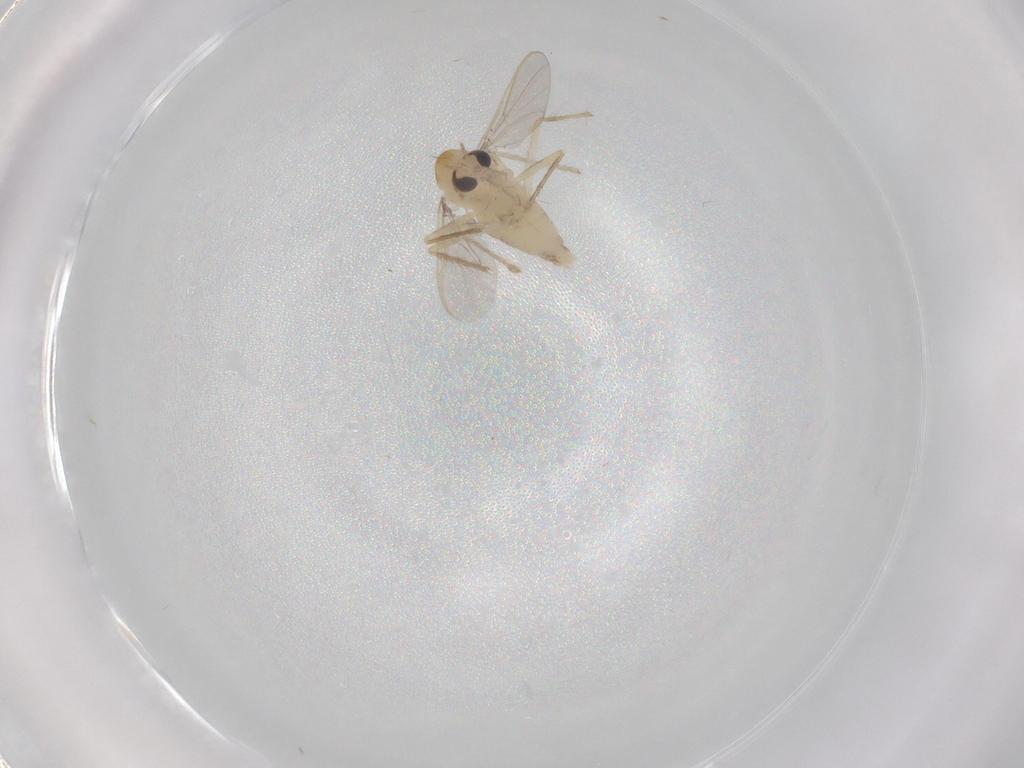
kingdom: Animalia
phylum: Arthropoda
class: Insecta
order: Diptera
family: Chironomidae
